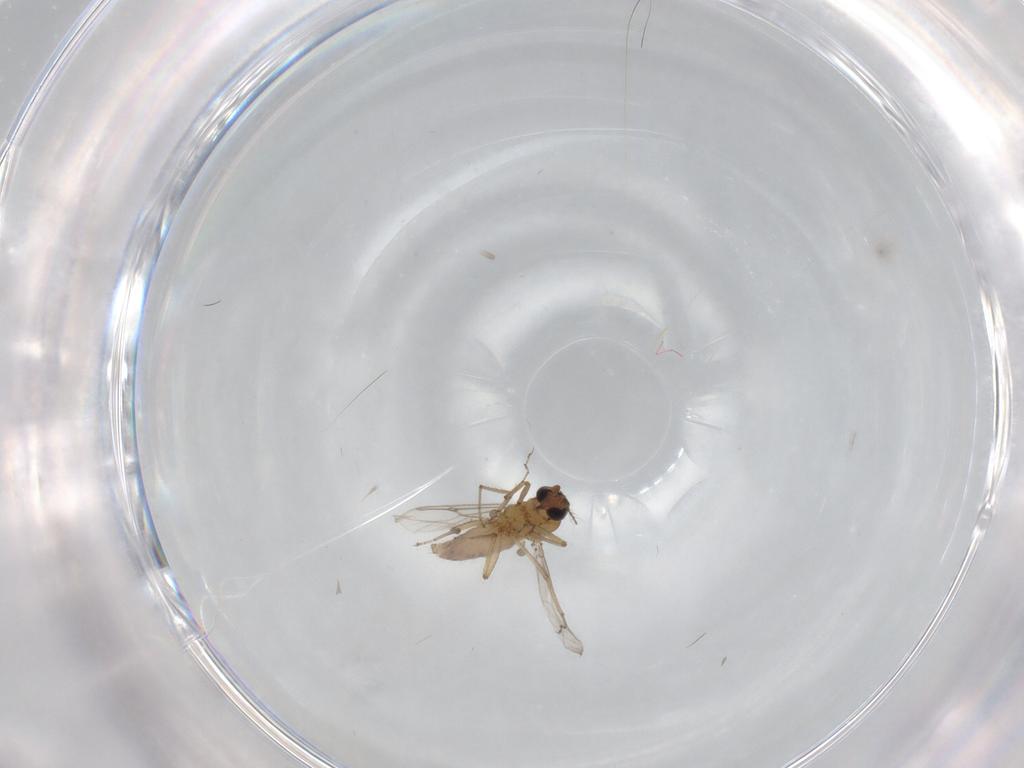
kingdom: Animalia
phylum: Arthropoda
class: Insecta
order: Diptera
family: Ceratopogonidae
